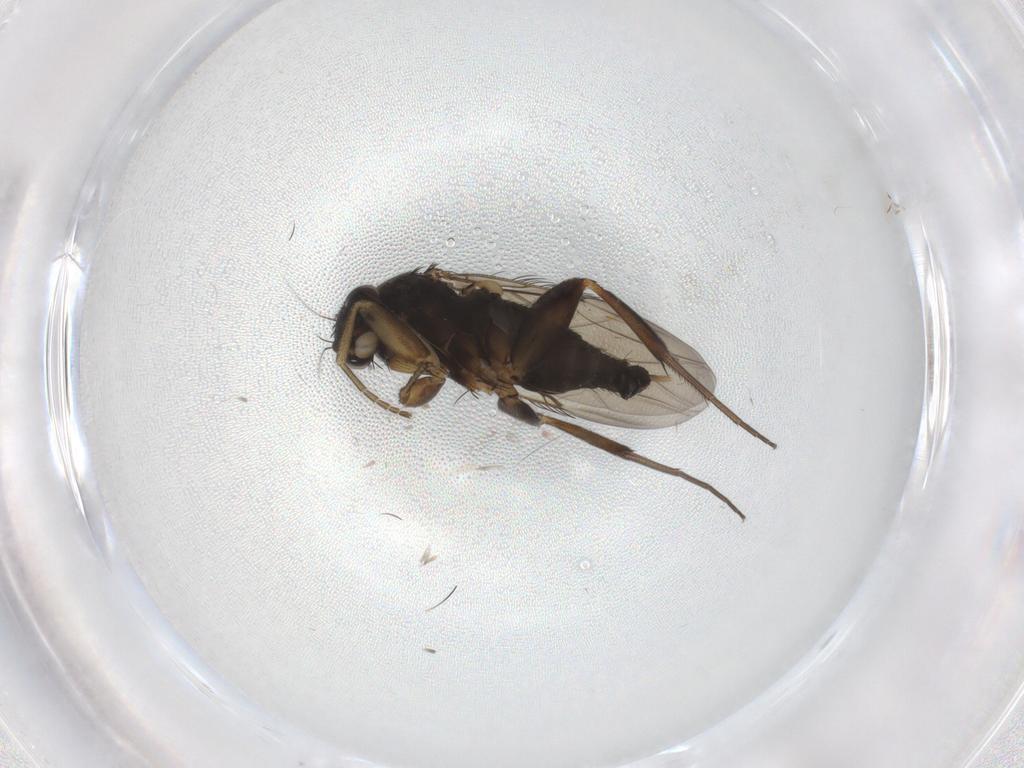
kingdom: Animalia
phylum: Arthropoda
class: Insecta
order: Diptera
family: Phoridae
